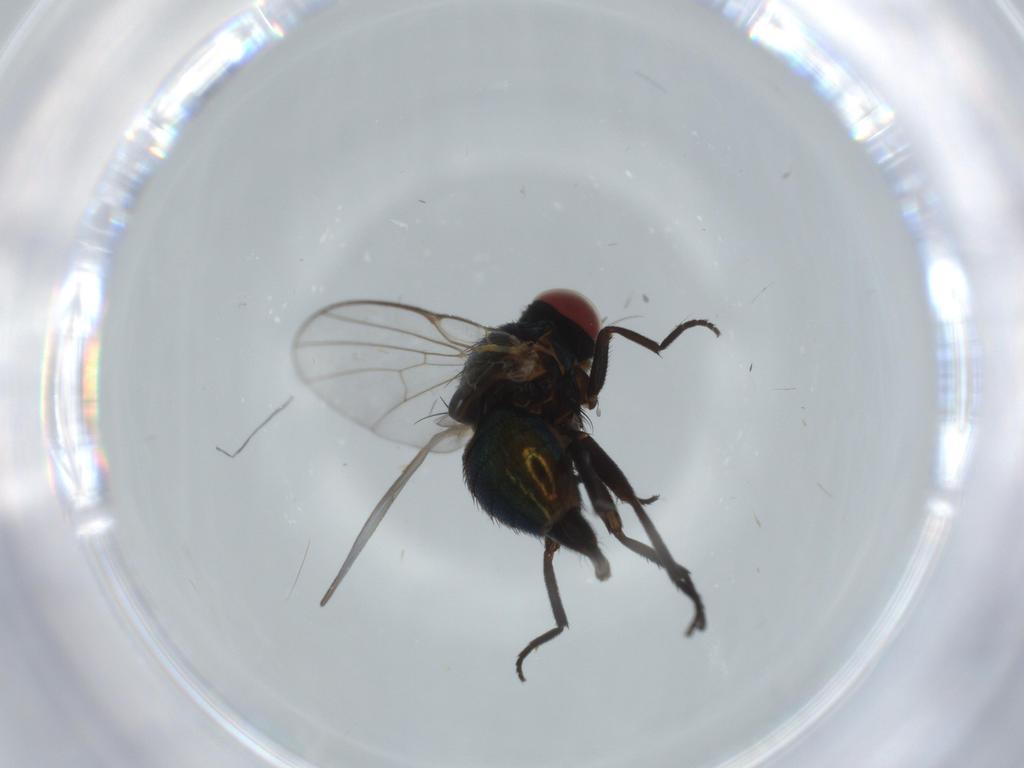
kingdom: Animalia
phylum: Arthropoda
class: Insecta
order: Diptera
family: Agromyzidae
